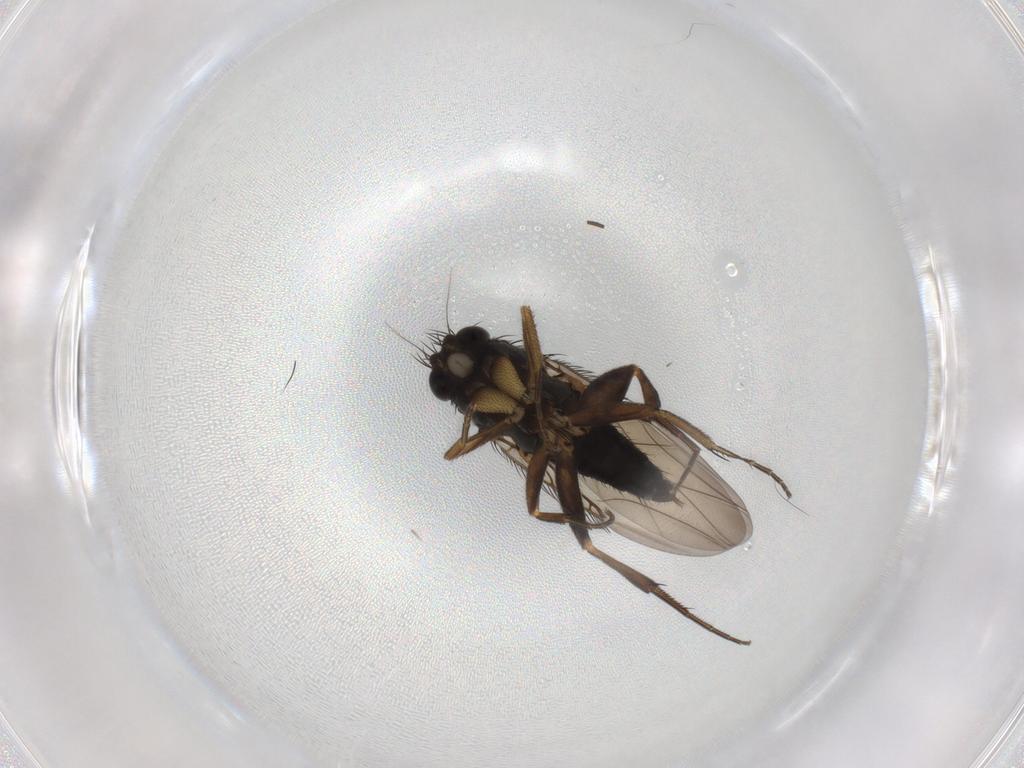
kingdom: Animalia
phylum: Arthropoda
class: Insecta
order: Diptera
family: Phoridae
